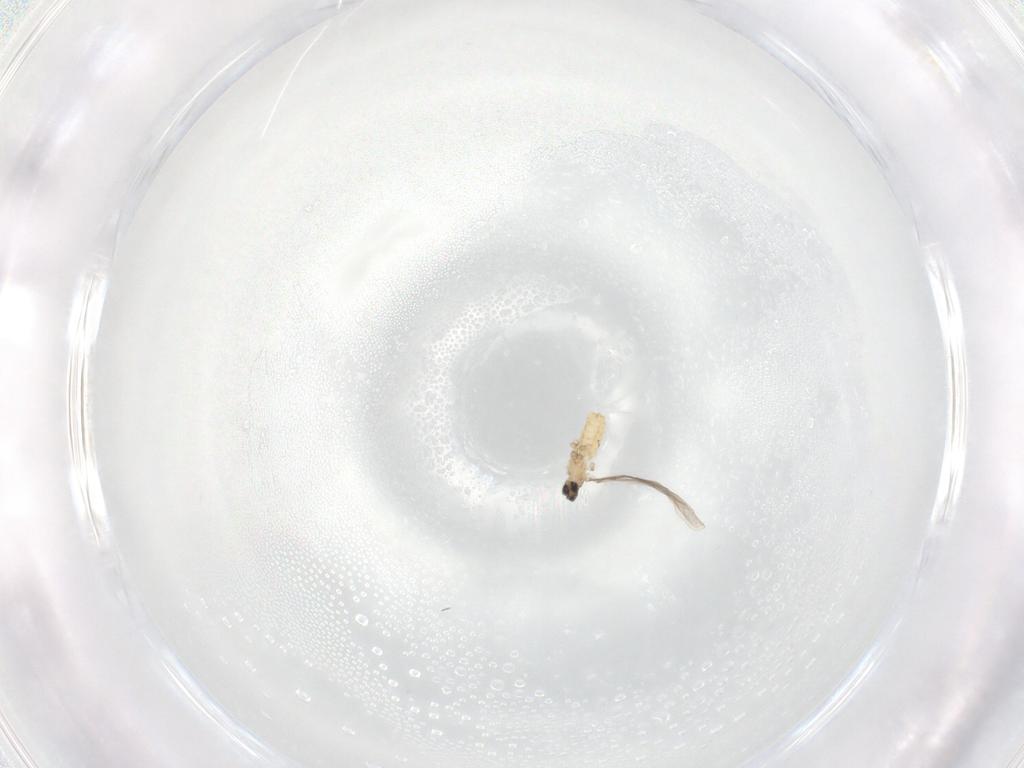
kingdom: Animalia
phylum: Arthropoda
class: Insecta
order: Diptera
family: Cecidomyiidae
